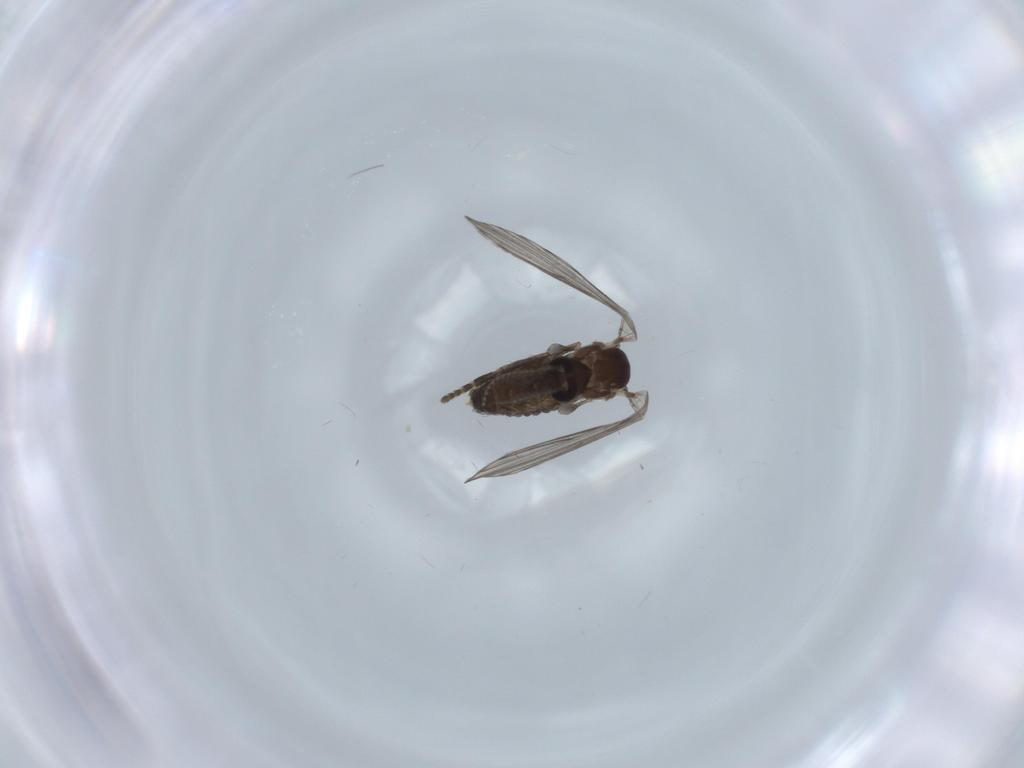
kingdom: Animalia
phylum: Arthropoda
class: Insecta
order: Diptera
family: Psychodidae
